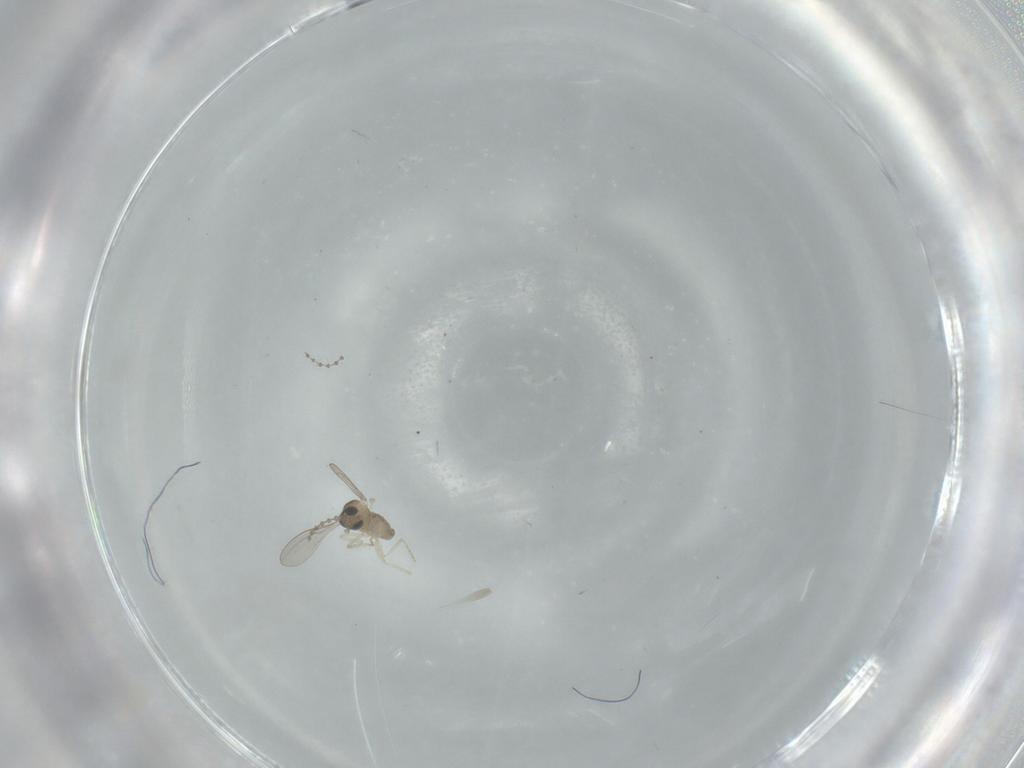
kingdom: Animalia
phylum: Arthropoda
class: Insecta
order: Diptera
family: Cecidomyiidae
